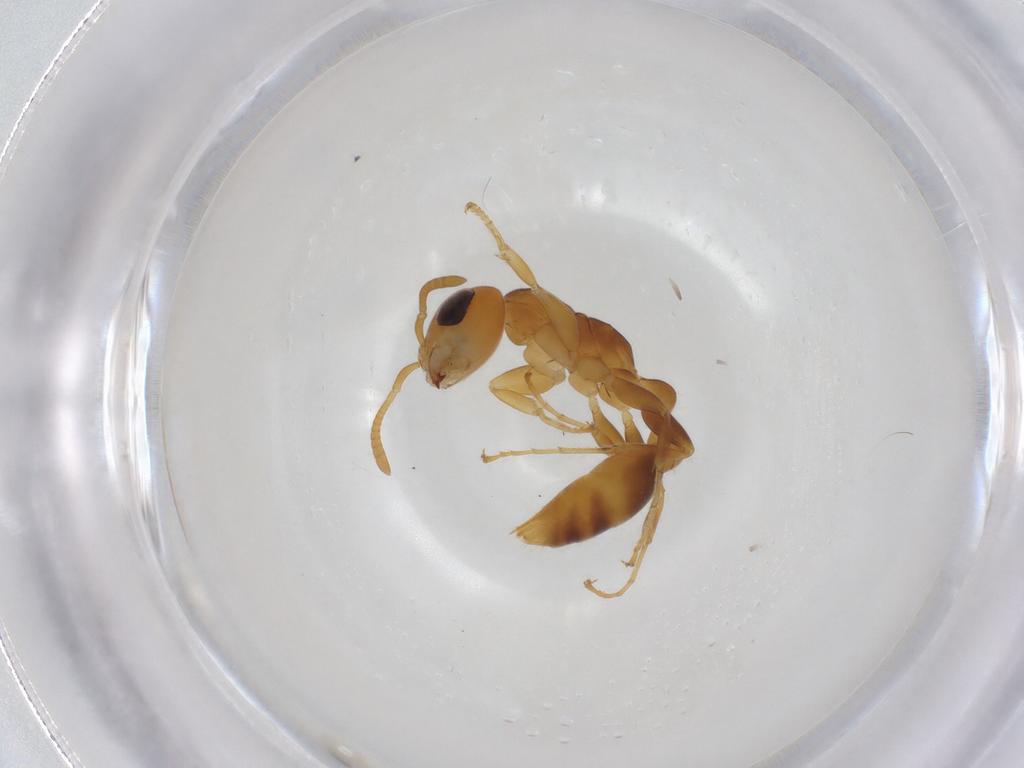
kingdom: Animalia
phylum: Arthropoda
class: Insecta
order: Hymenoptera
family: Formicidae
